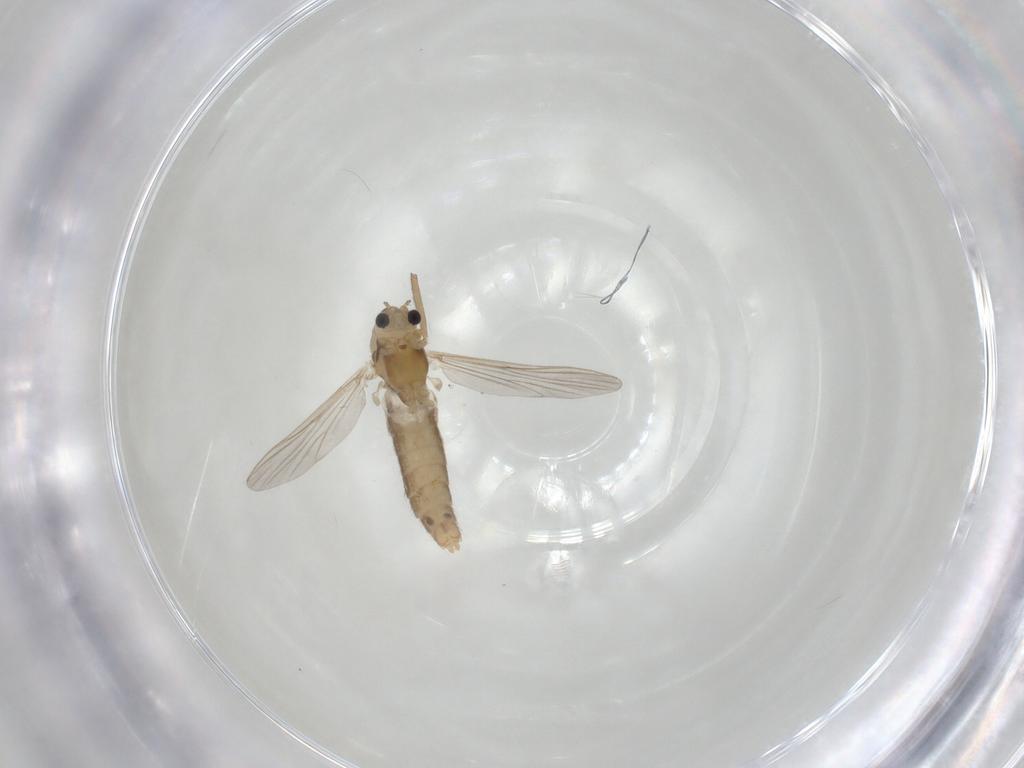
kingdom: Animalia
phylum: Arthropoda
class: Insecta
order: Diptera
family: Chironomidae
